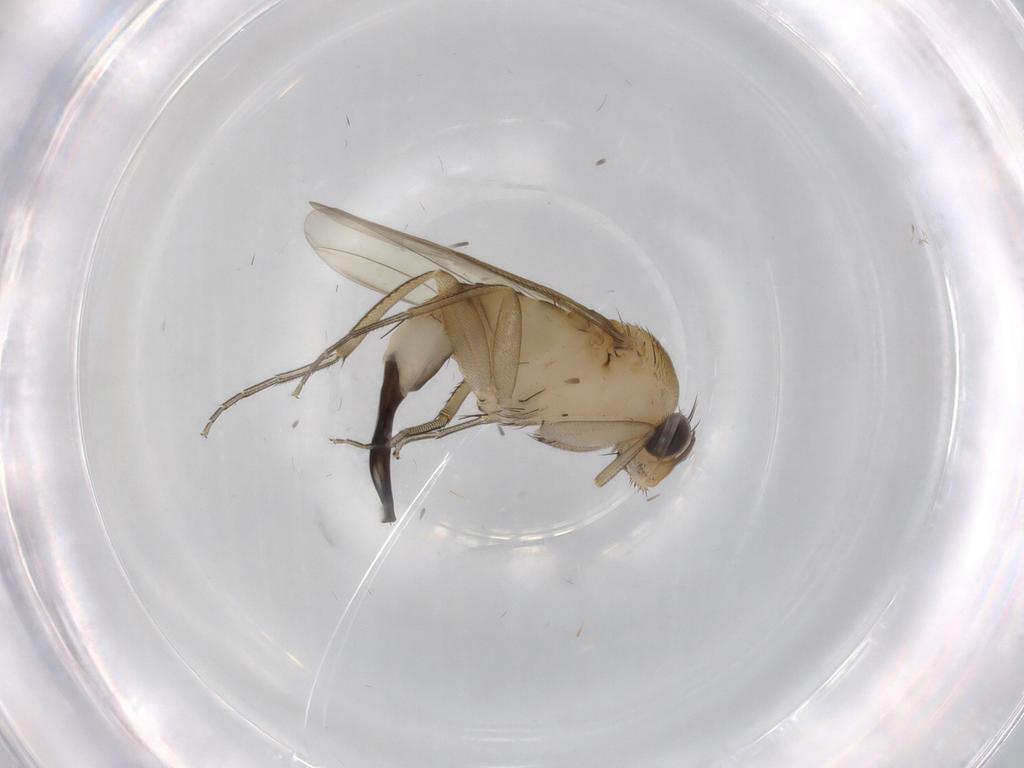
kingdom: Animalia
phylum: Arthropoda
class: Insecta
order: Diptera
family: Phoridae
